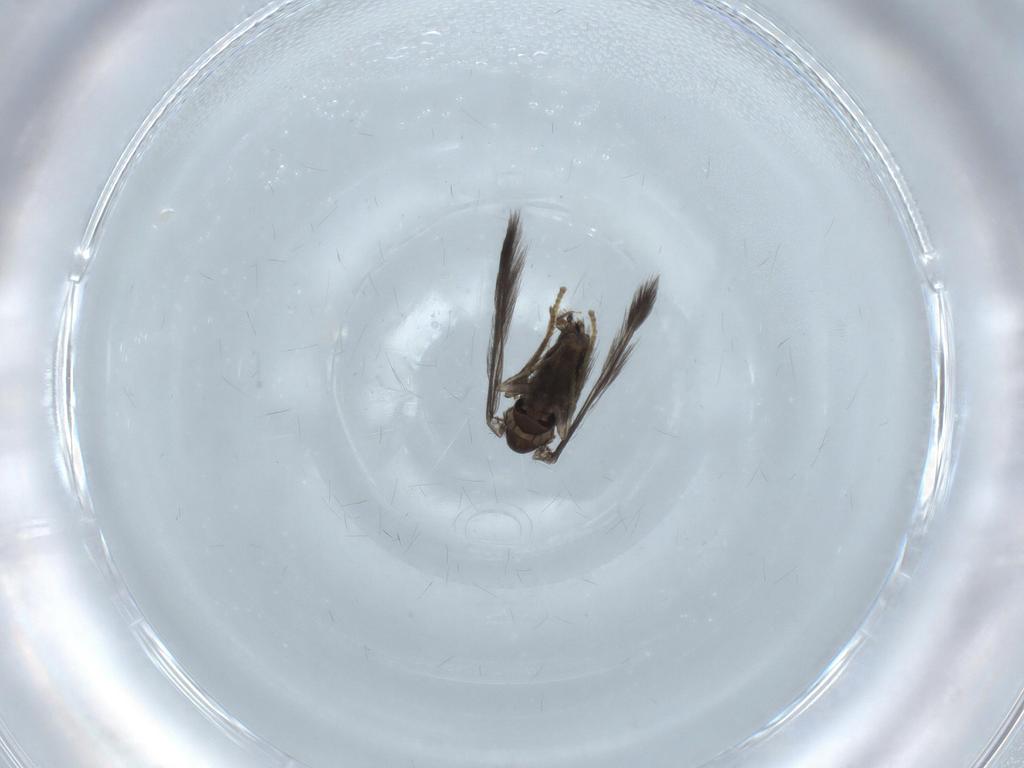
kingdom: Animalia
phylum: Arthropoda
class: Insecta
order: Diptera
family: Psychodidae
